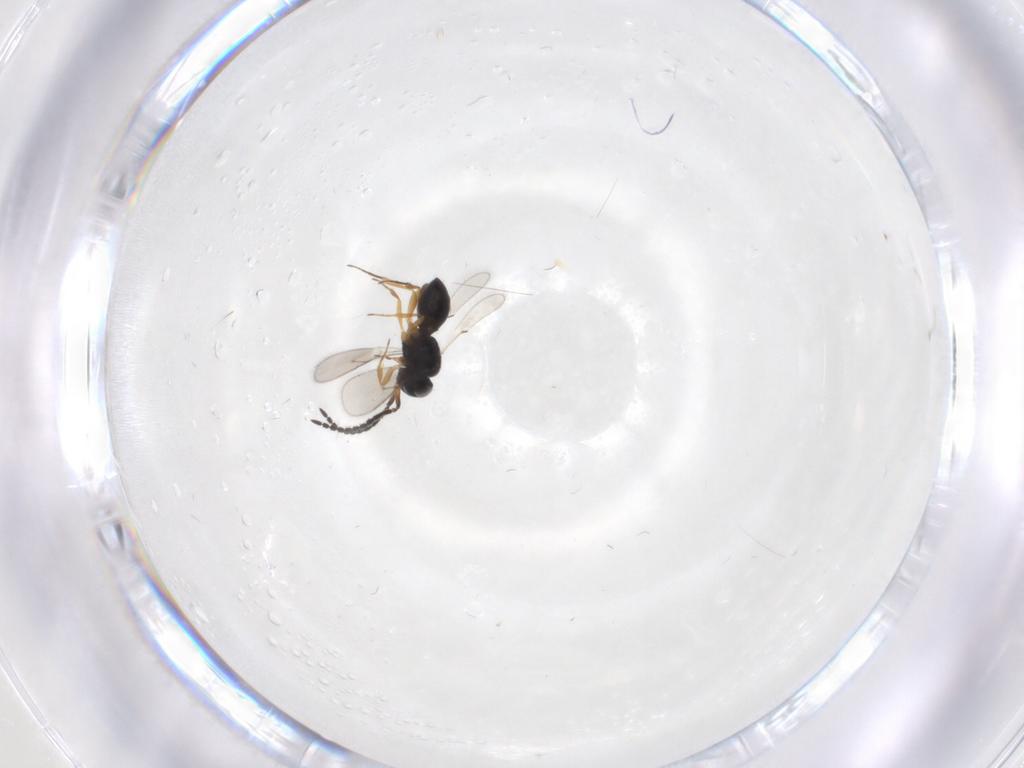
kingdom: Animalia
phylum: Arthropoda
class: Insecta
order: Hymenoptera
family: Scelionidae
